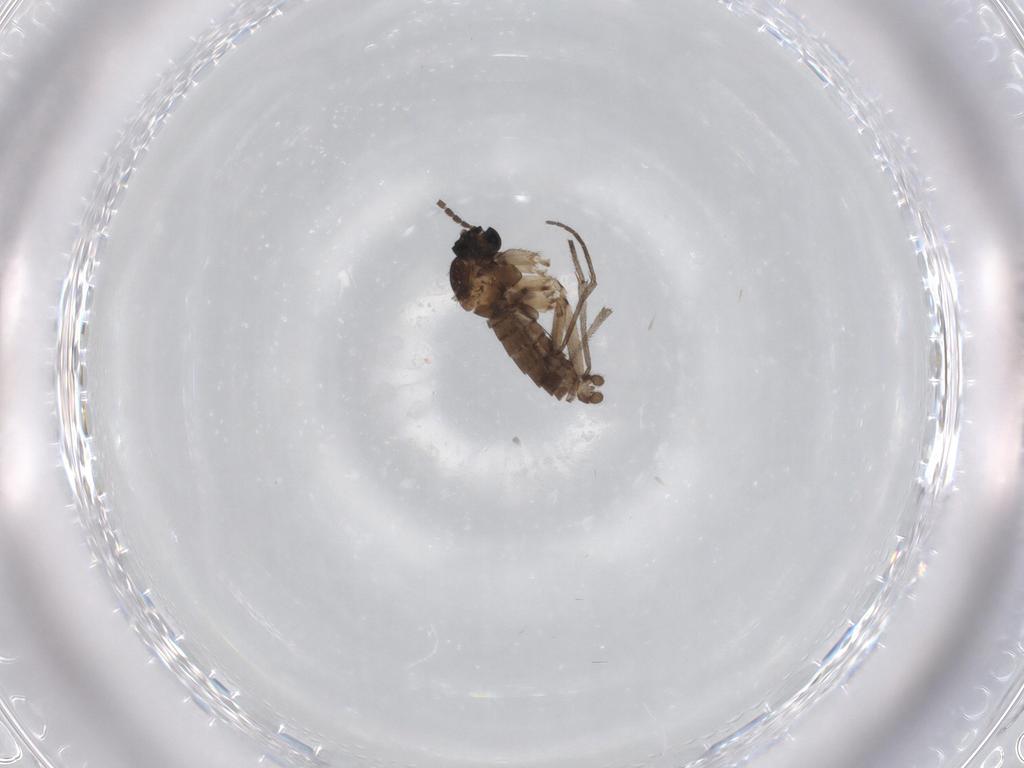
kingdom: Animalia
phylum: Arthropoda
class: Insecta
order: Diptera
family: Sciaridae
